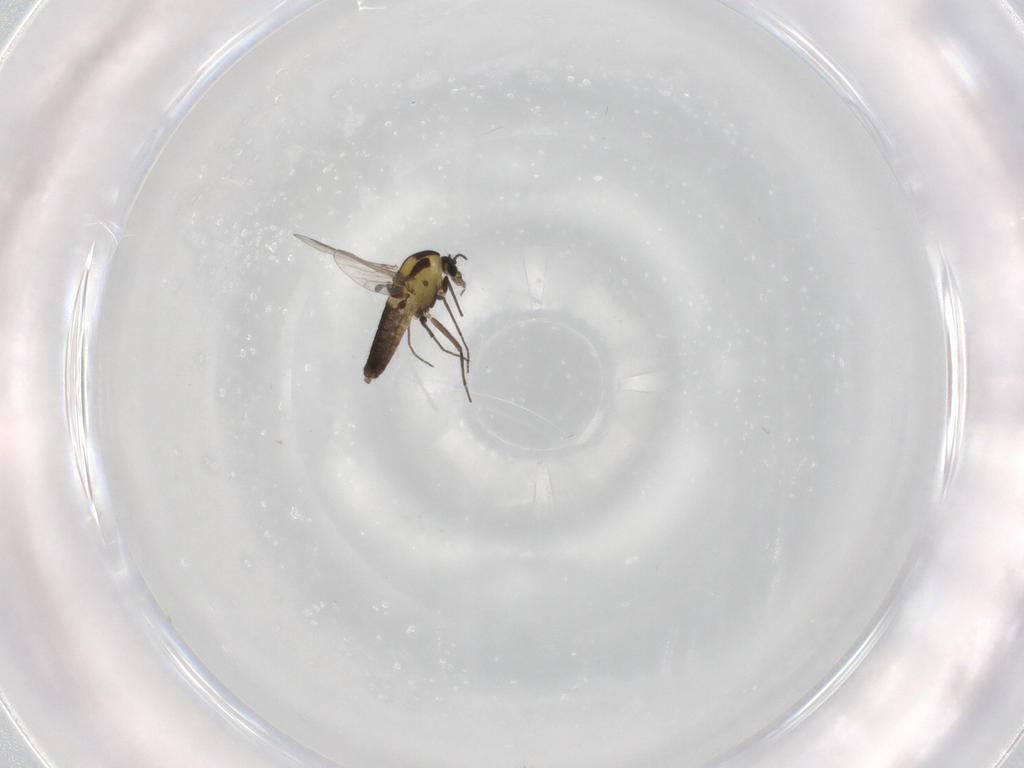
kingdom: Animalia
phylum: Arthropoda
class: Insecta
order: Diptera
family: Chironomidae
